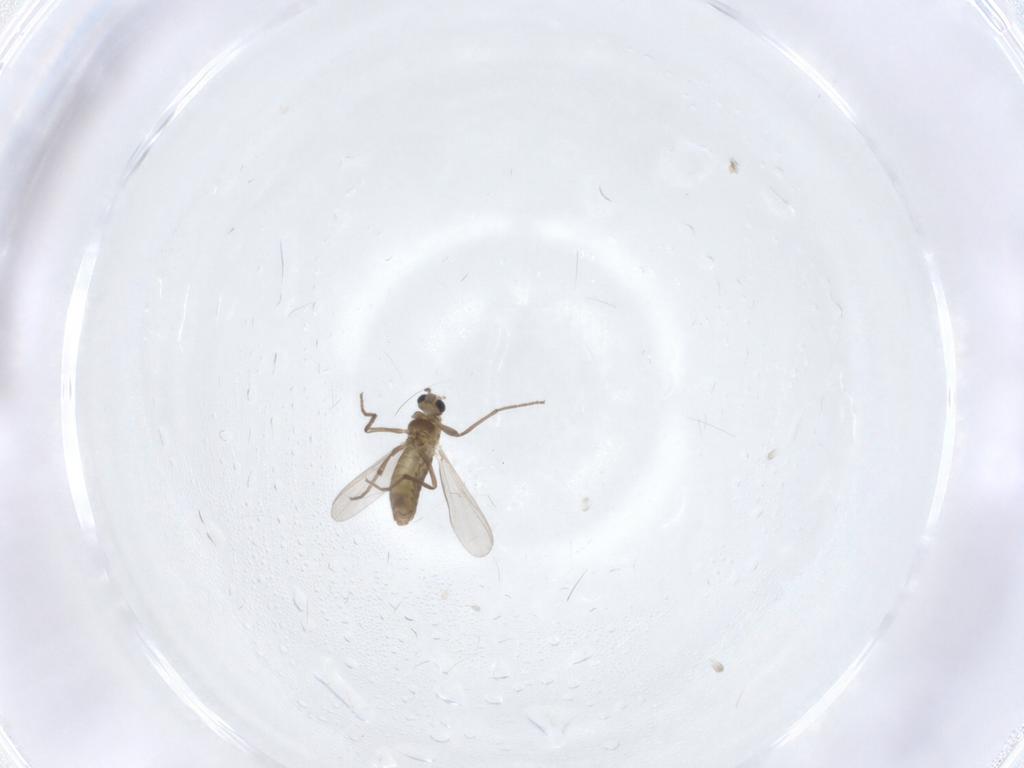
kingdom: Animalia
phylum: Arthropoda
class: Insecta
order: Diptera
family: Chironomidae
